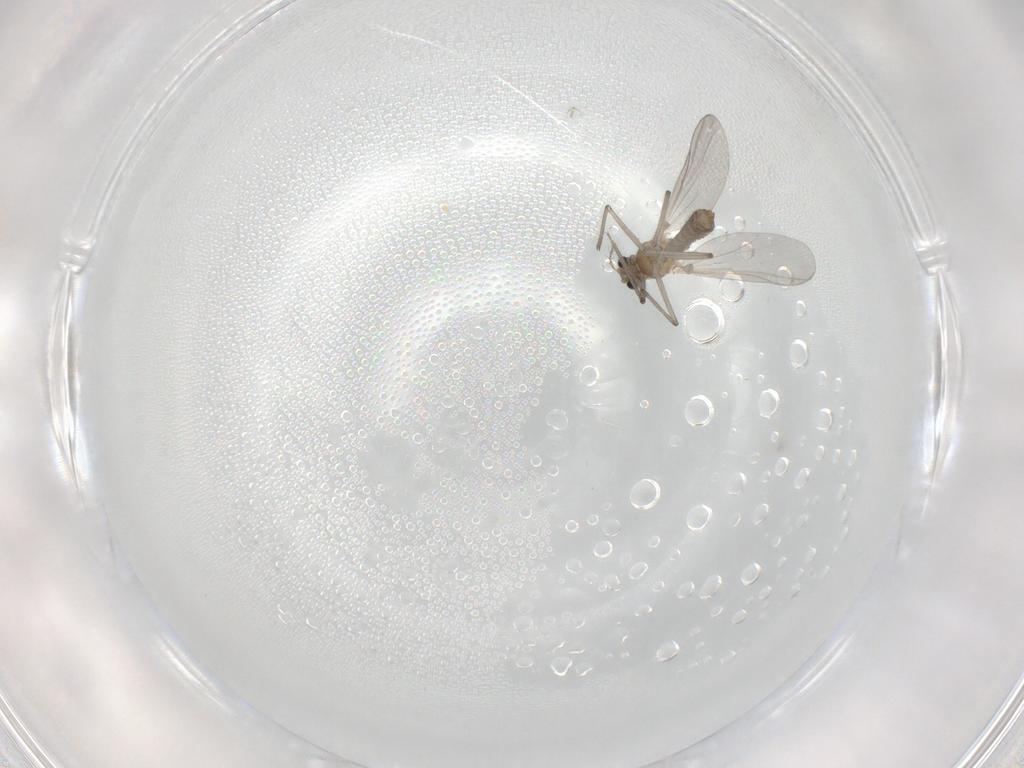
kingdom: Animalia
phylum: Arthropoda
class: Insecta
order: Diptera
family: Chironomidae
